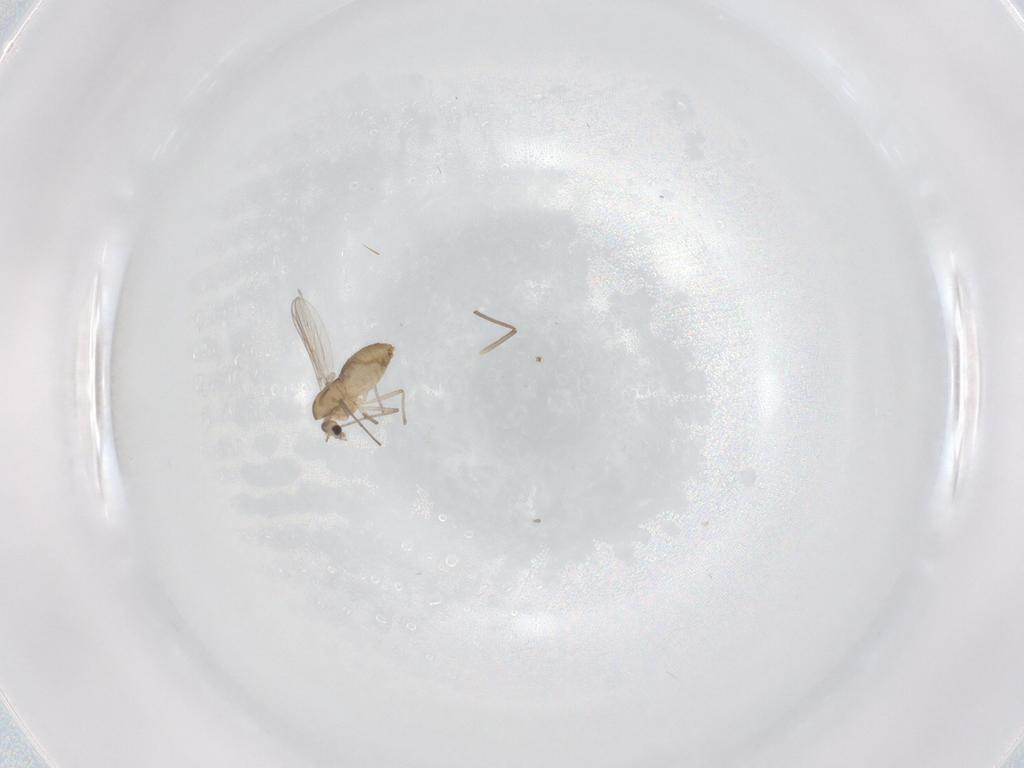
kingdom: Animalia
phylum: Arthropoda
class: Insecta
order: Diptera
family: Chironomidae
